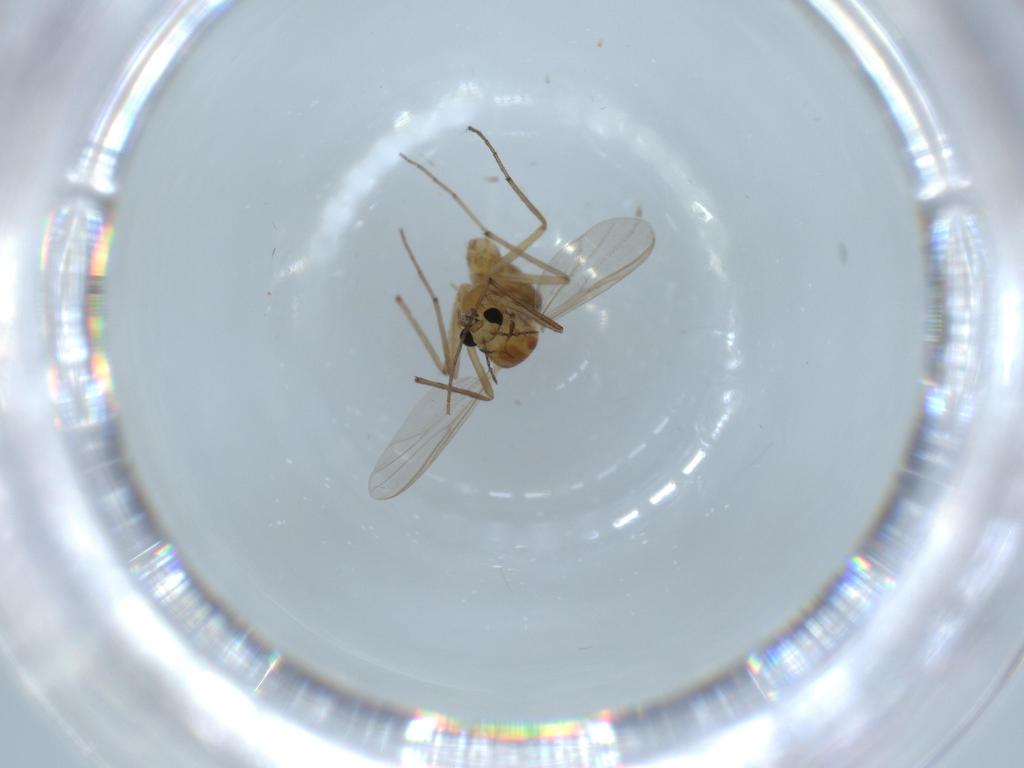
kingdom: Animalia
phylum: Arthropoda
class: Insecta
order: Diptera
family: Chironomidae
